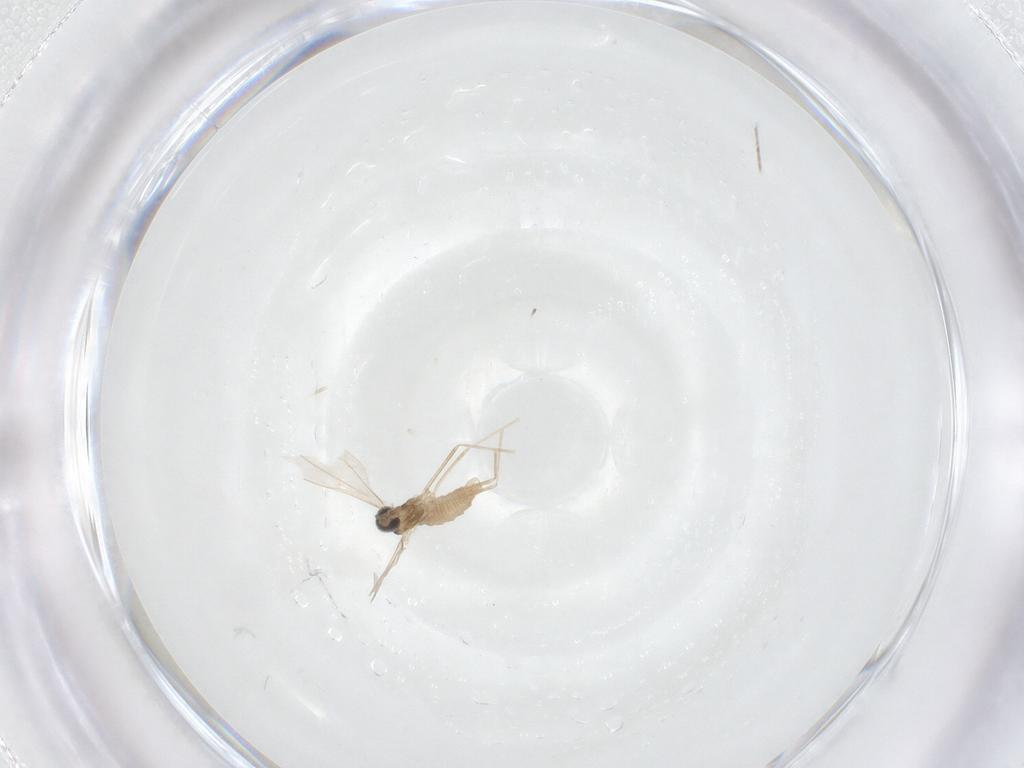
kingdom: Animalia
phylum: Arthropoda
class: Insecta
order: Diptera
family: Cecidomyiidae
